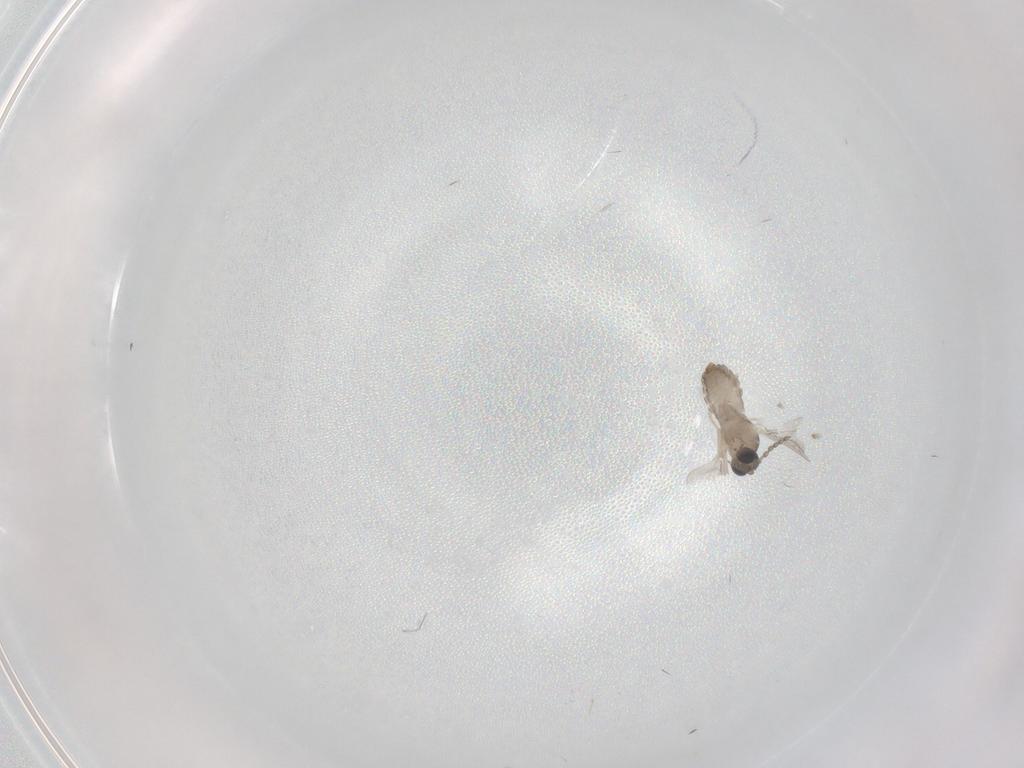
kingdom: Animalia
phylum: Arthropoda
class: Insecta
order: Diptera
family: Cecidomyiidae
